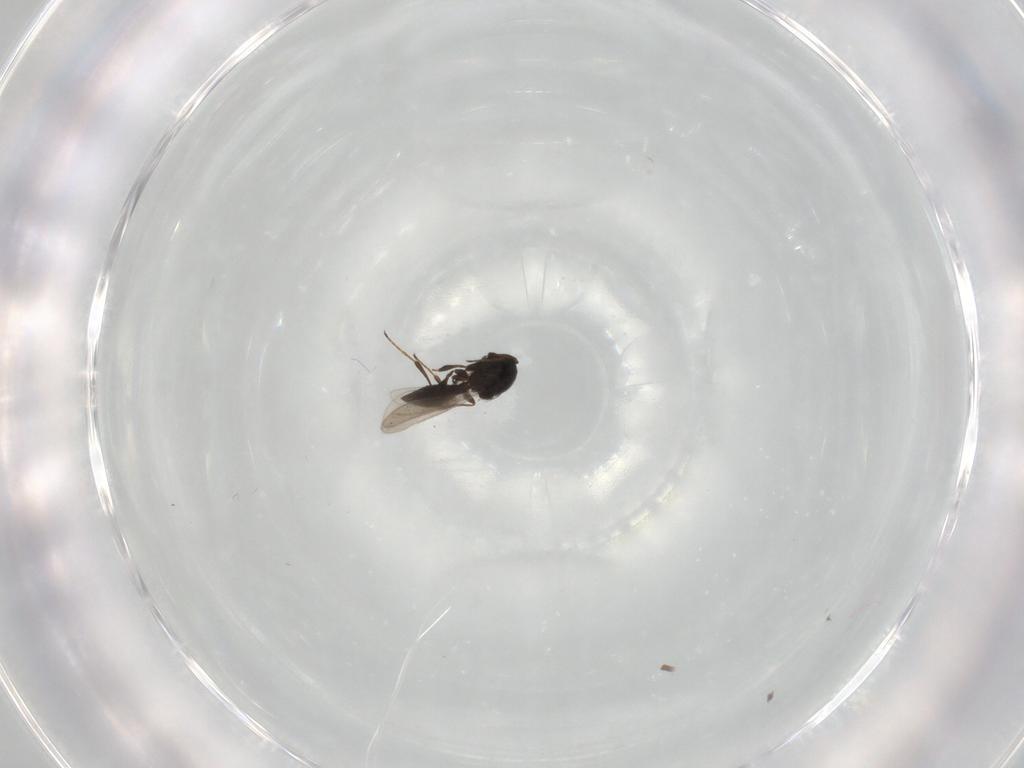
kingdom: Animalia
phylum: Arthropoda
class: Insecta
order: Hymenoptera
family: Platygastridae
